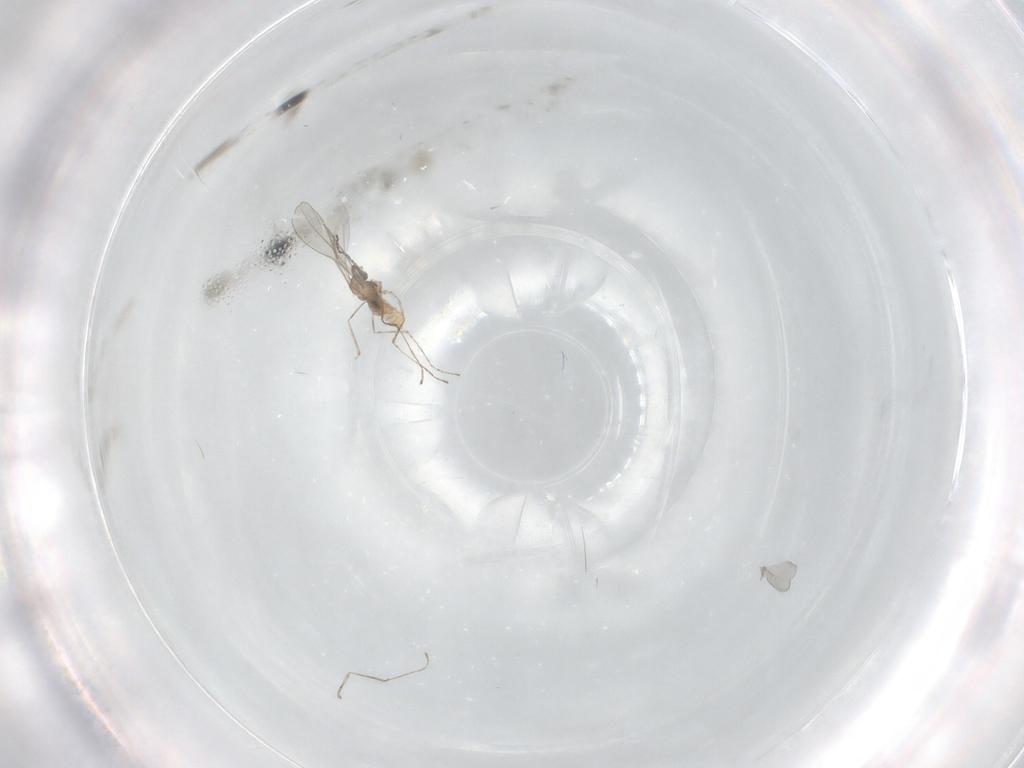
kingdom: Animalia
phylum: Arthropoda
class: Insecta
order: Diptera
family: Sciaridae
